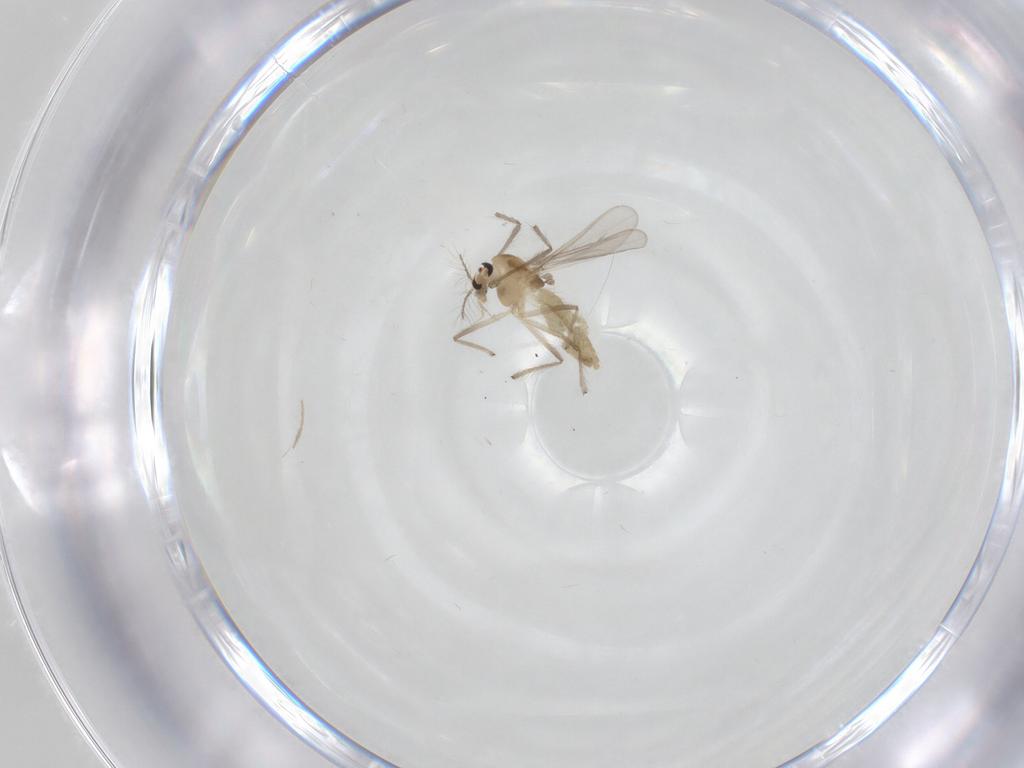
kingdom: Animalia
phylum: Arthropoda
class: Insecta
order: Diptera
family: Chironomidae
